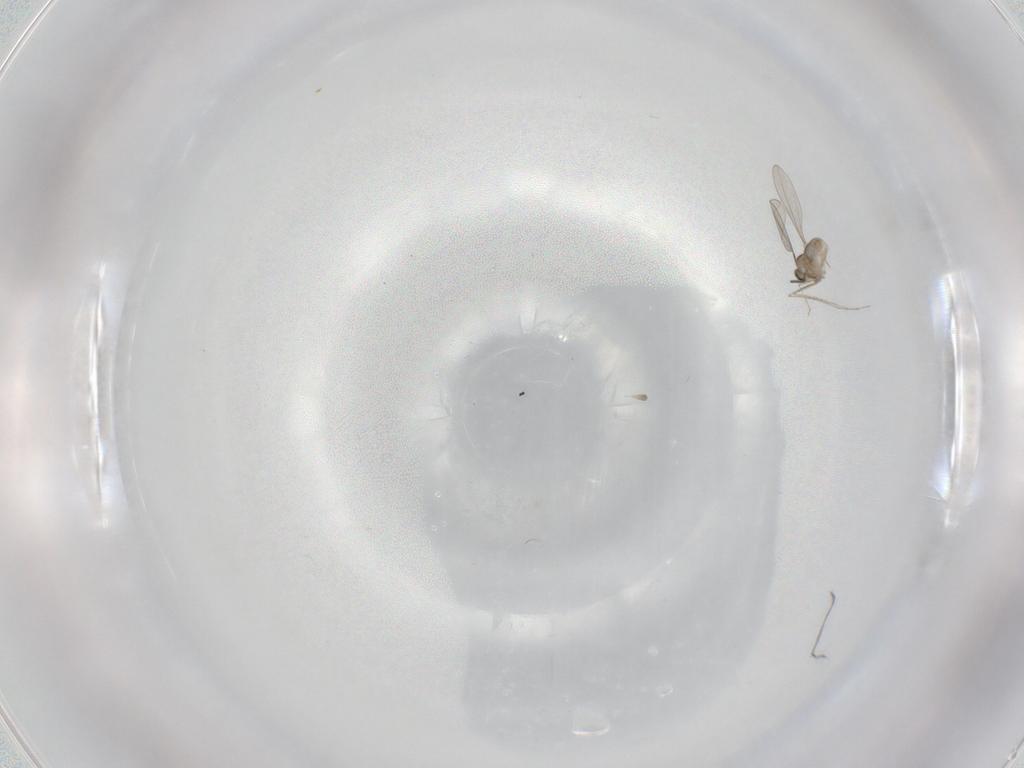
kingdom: Animalia
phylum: Arthropoda
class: Insecta
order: Diptera
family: Cecidomyiidae
